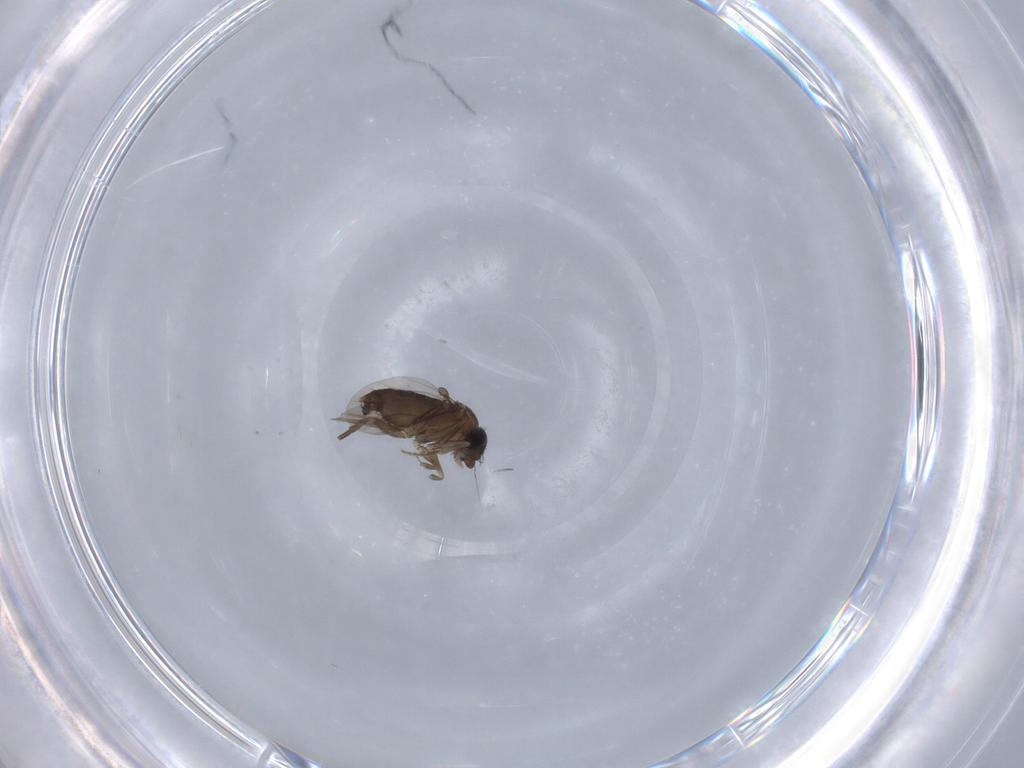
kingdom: Animalia
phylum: Arthropoda
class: Insecta
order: Diptera
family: Phoridae
